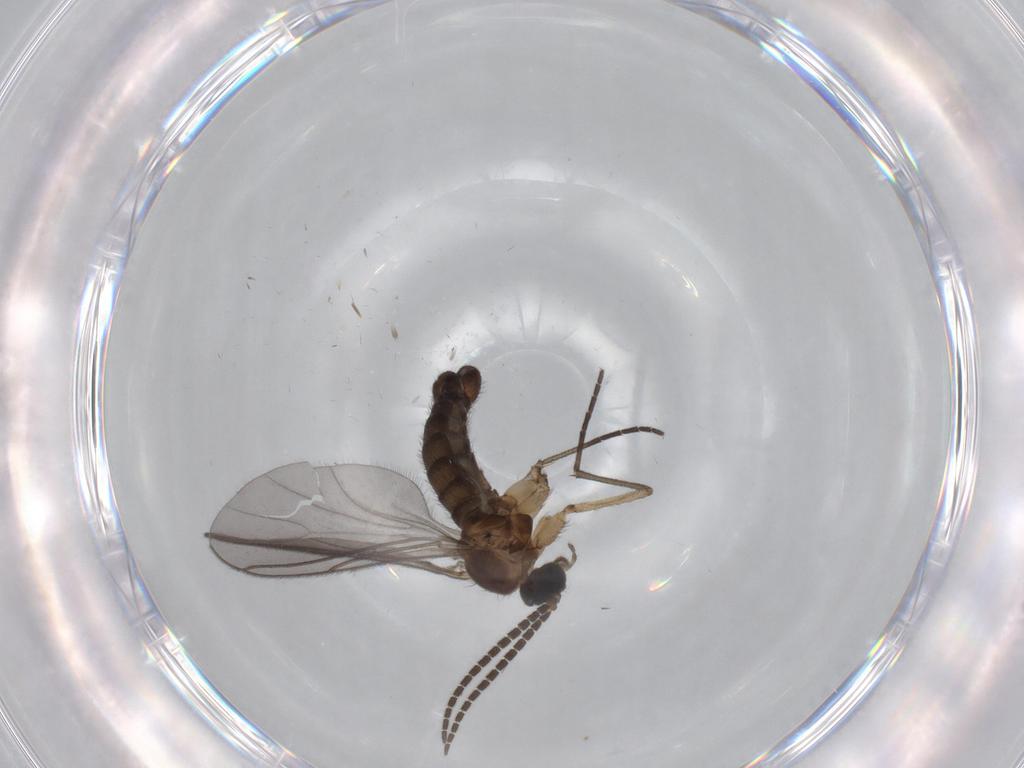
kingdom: Animalia
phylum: Arthropoda
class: Insecta
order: Diptera
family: Sciaridae
